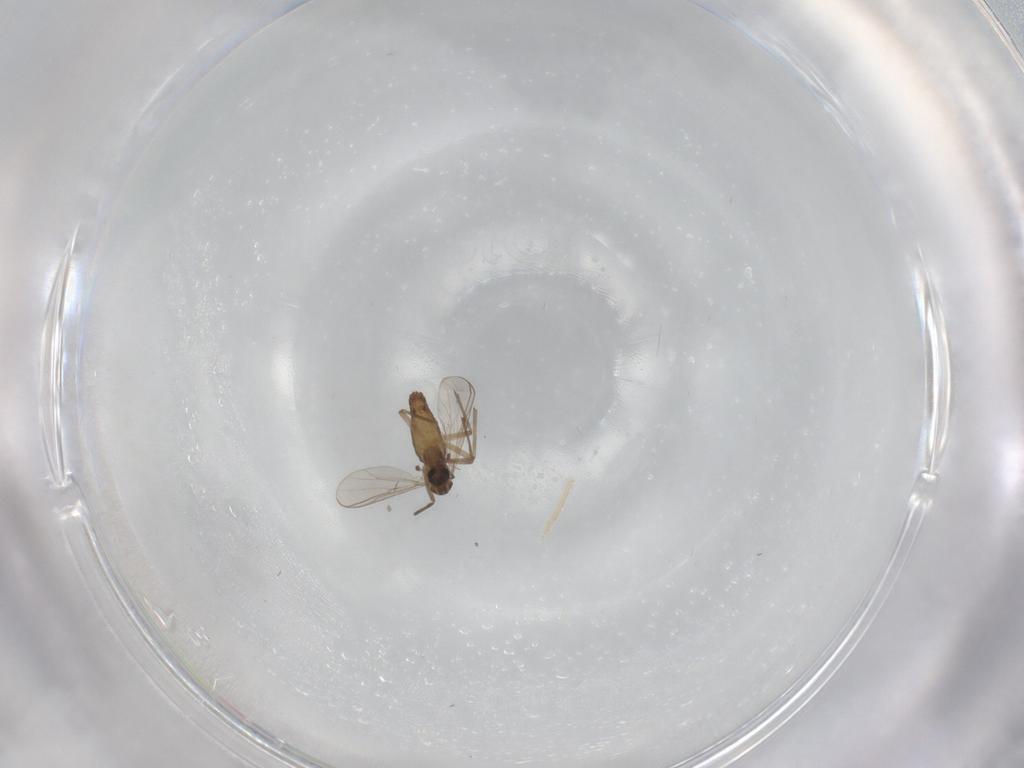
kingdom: Animalia
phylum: Arthropoda
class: Insecta
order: Diptera
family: Chironomidae
